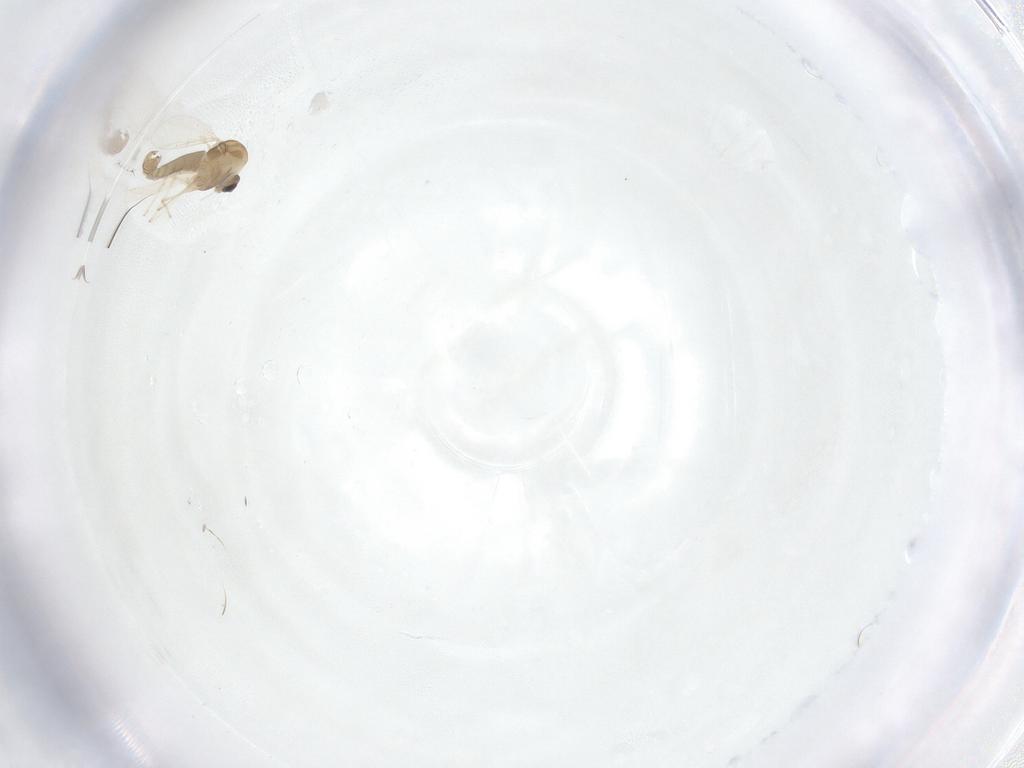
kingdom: Animalia
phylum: Arthropoda
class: Insecta
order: Diptera
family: Chironomidae
